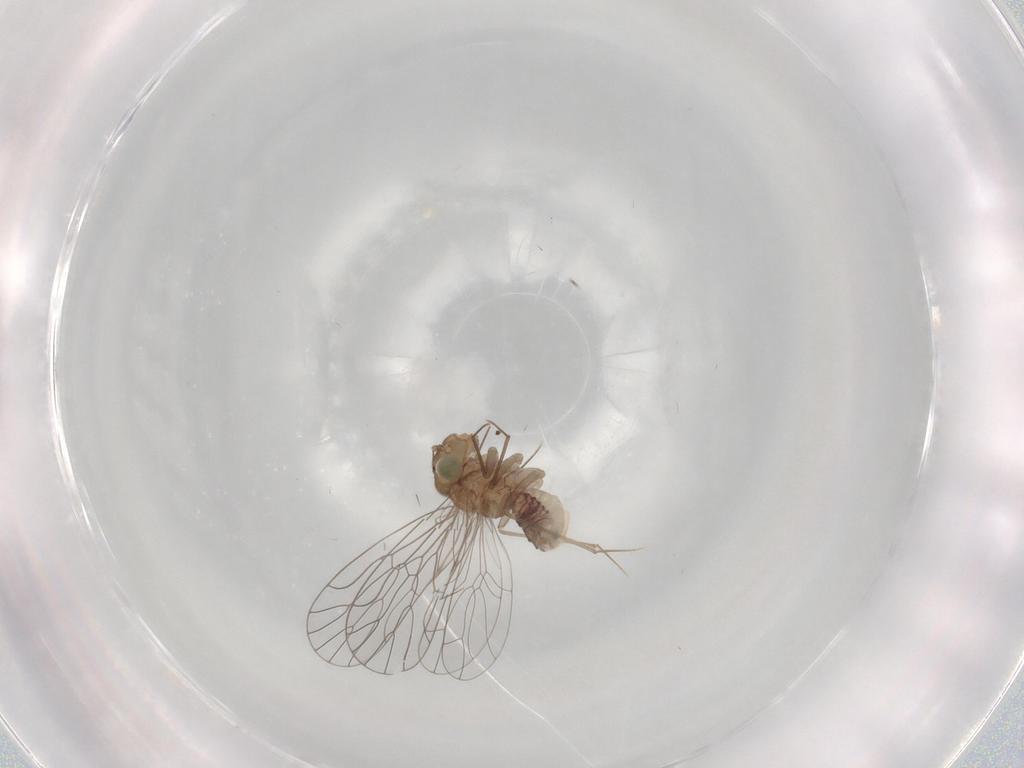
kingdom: Animalia
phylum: Arthropoda
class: Insecta
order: Psocodea
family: Amphientomidae
